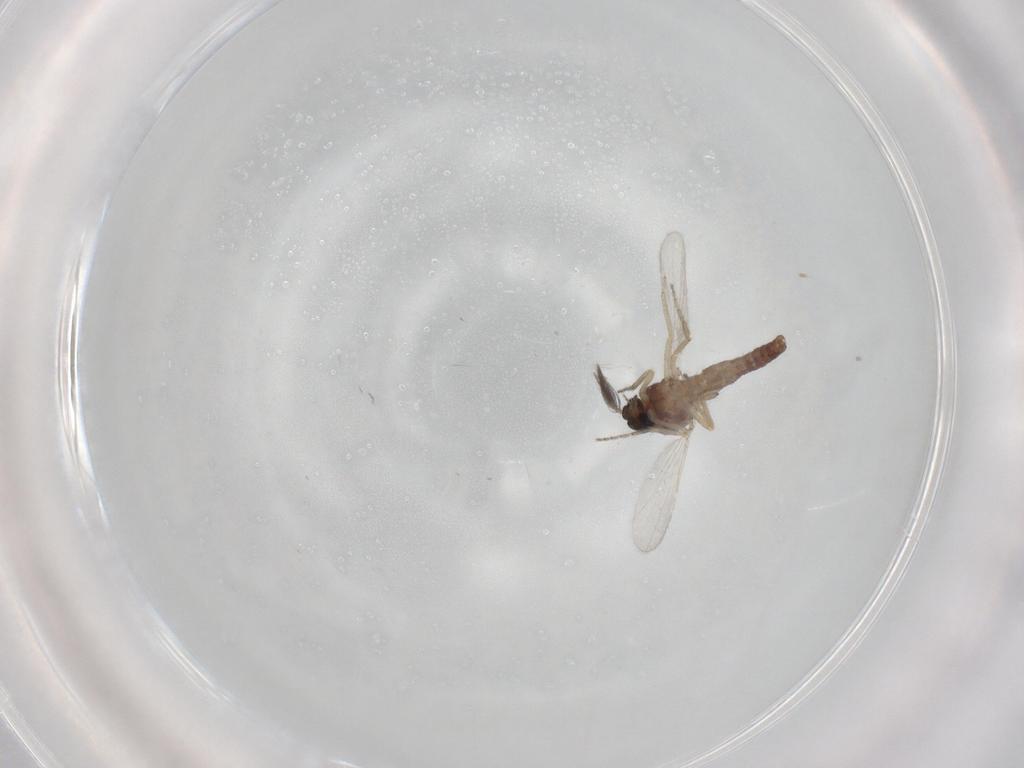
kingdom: Animalia
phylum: Arthropoda
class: Insecta
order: Diptera
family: Ceratopogonidae
